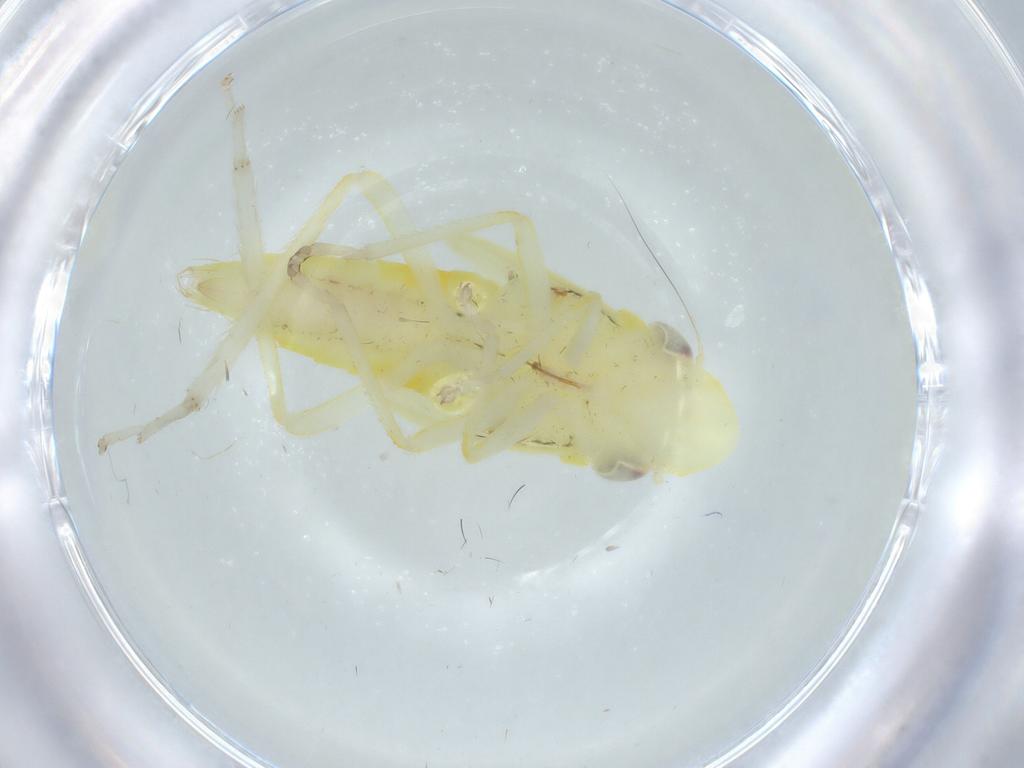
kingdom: Animalia
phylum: Arthropoda
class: Insecta
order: Hemiptera
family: Cicadellidae
